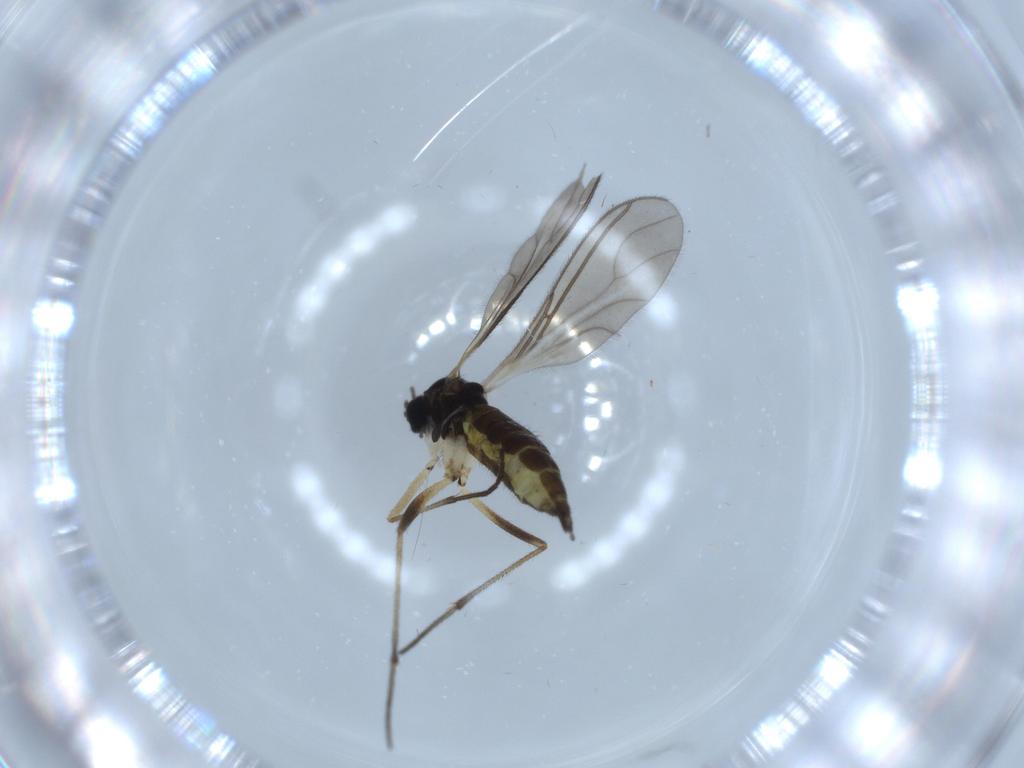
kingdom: Animalia
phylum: Arthropoda
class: Insecta
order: Diptera
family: Sciaridae
